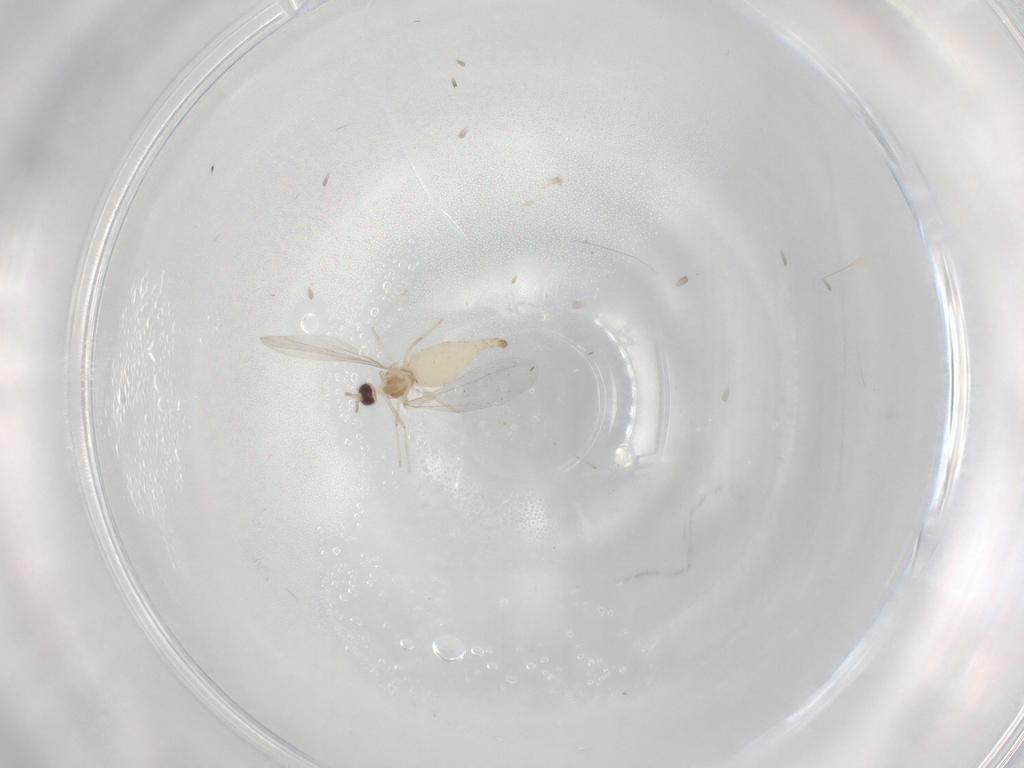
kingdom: Animalia
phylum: Arthropoda
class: Insecta
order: Diptera
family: Cecidomyiidae
